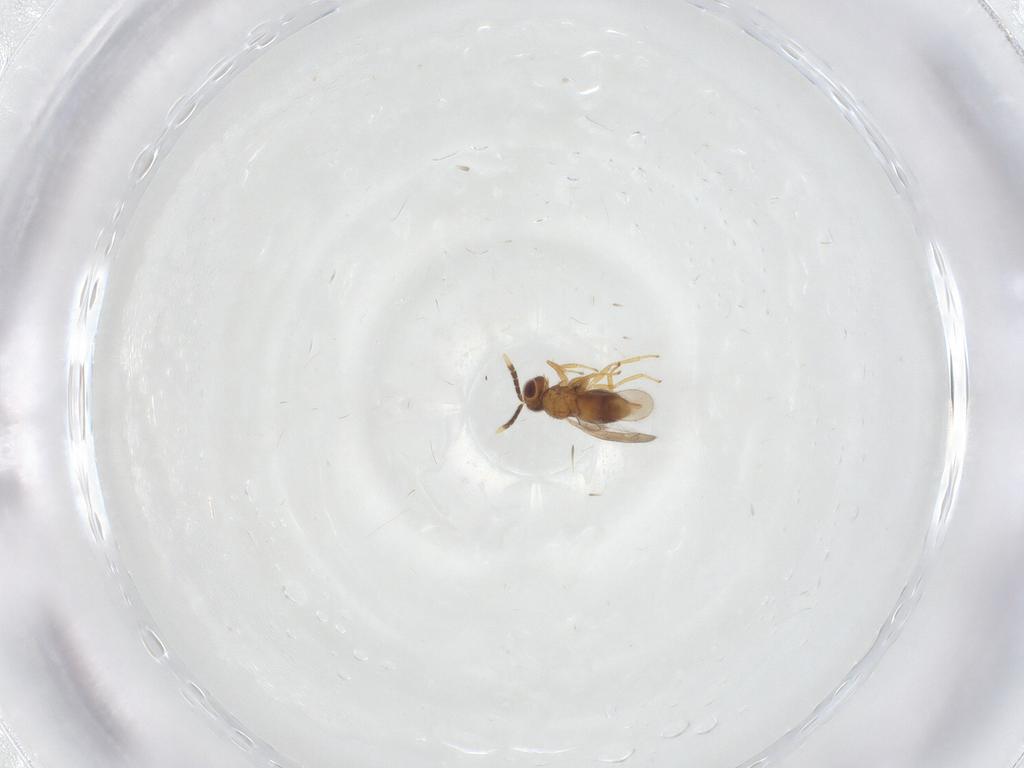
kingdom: Animalia
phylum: Arthropoda
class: Insecta
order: Hymenoptera
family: Aphelinidae
